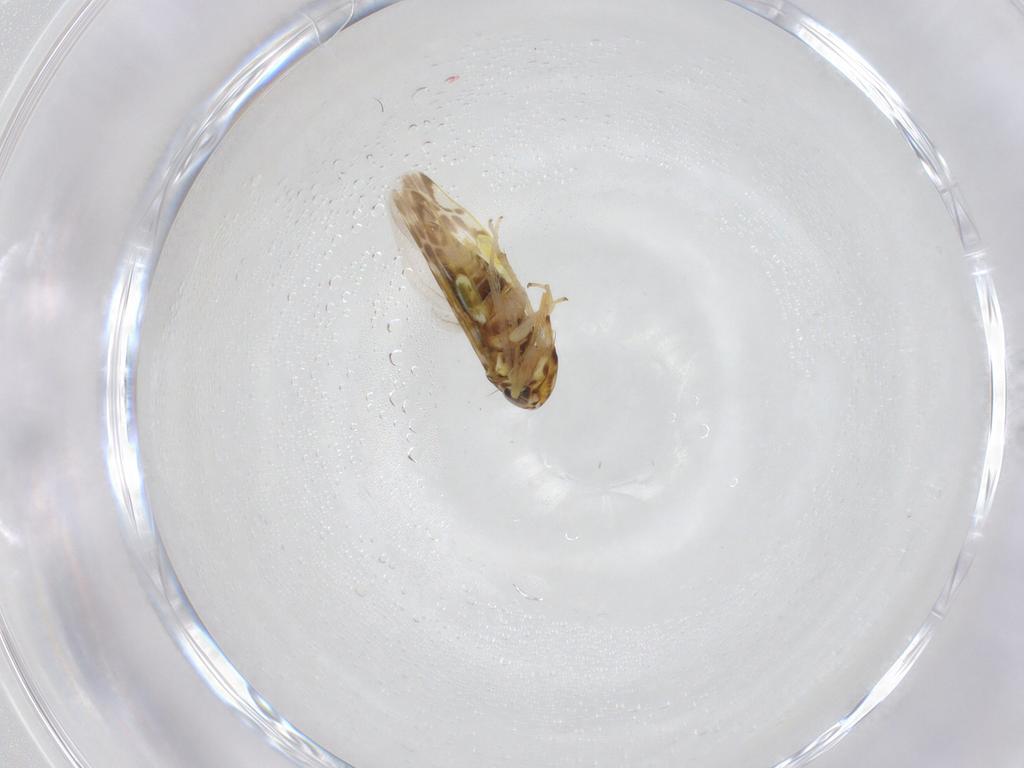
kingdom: Animalia
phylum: Arthropoda
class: Insecta
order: Hemiptera
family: Cicadellidae
